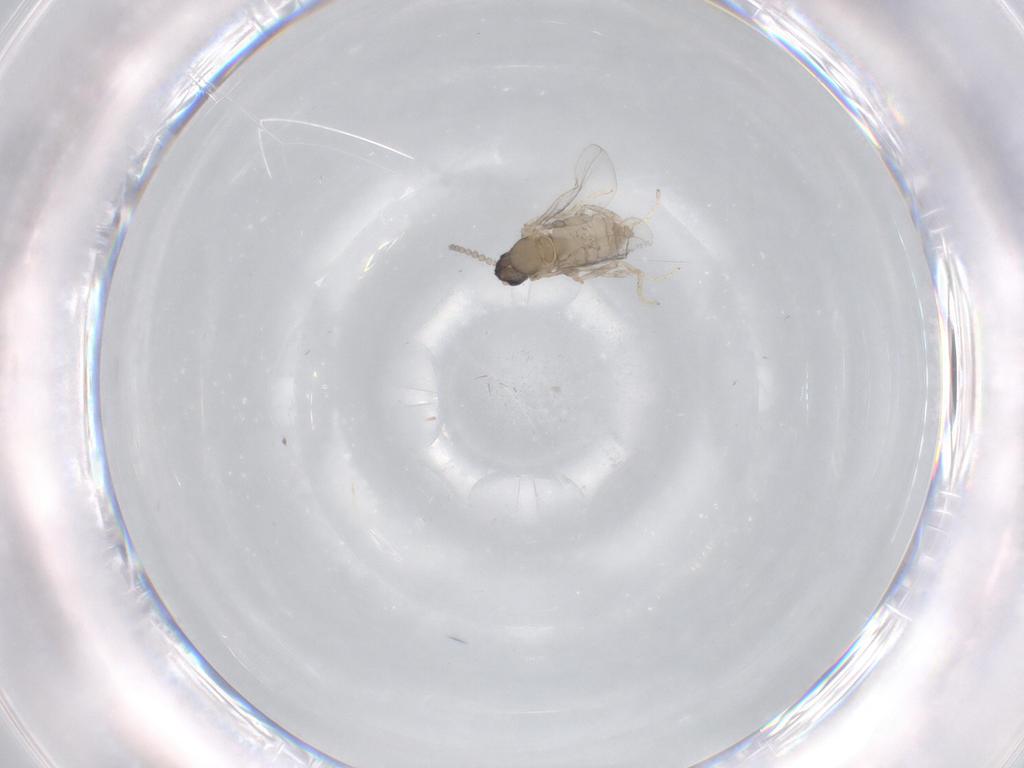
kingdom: Animalia
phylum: Arthropoda
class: Insecta
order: Diptera
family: Cecidomyiidae
